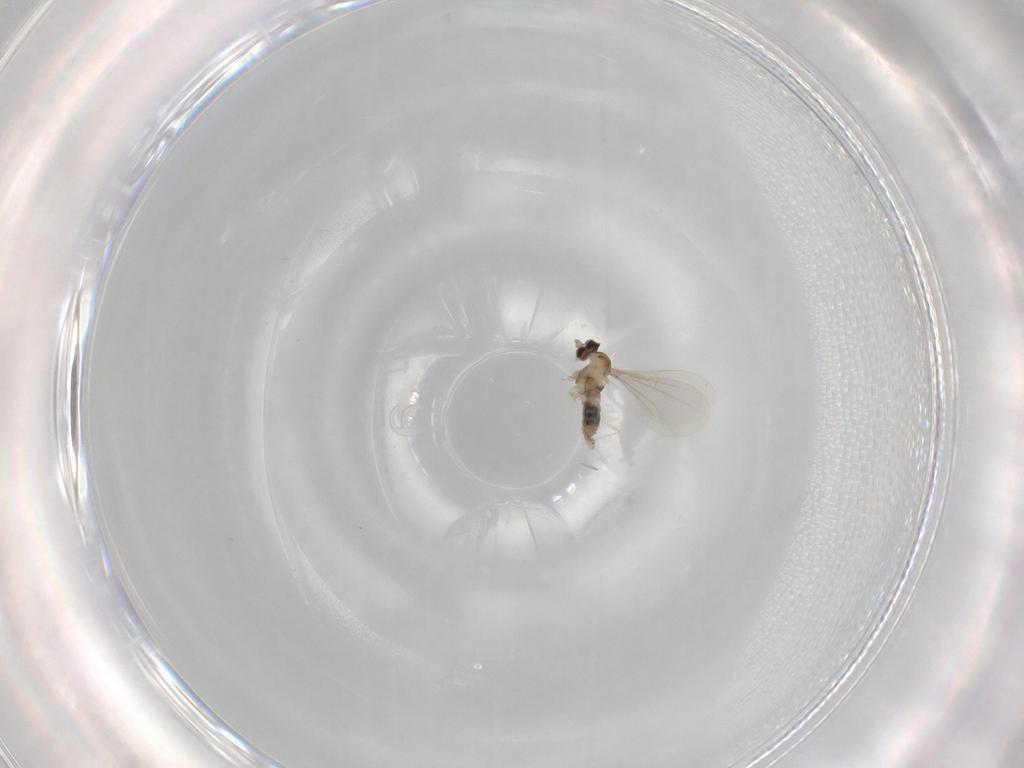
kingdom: Animalia
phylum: Arthropoda
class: Insecta
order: Diptera
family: Cecidomyiidae
